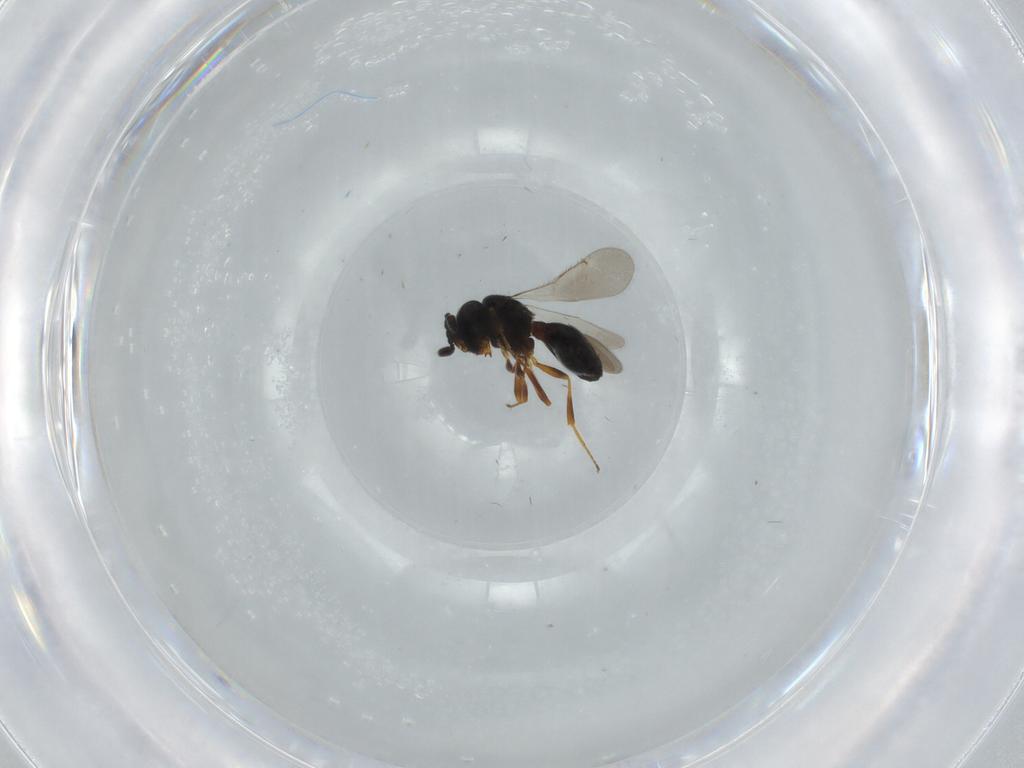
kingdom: Animalia
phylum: Arthropoda
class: Insecta
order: Hymenoptera
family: Scelionidae
